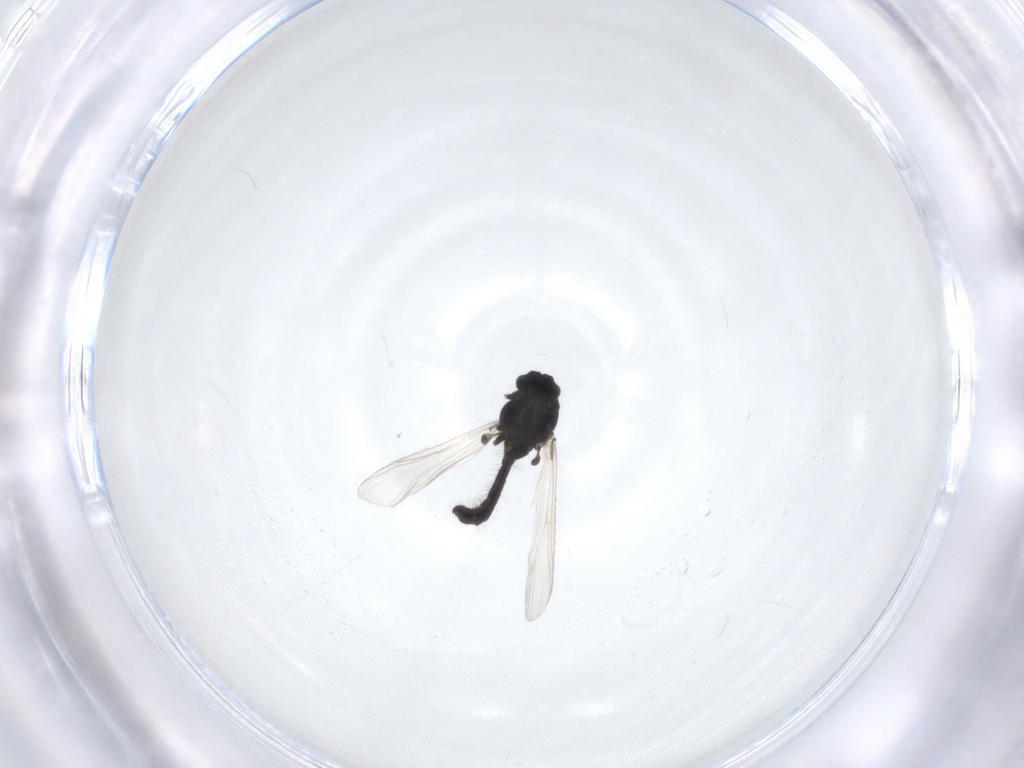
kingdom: Animalia
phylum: Arthropoda
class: Insecta
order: Diptera
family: Chironomidae
